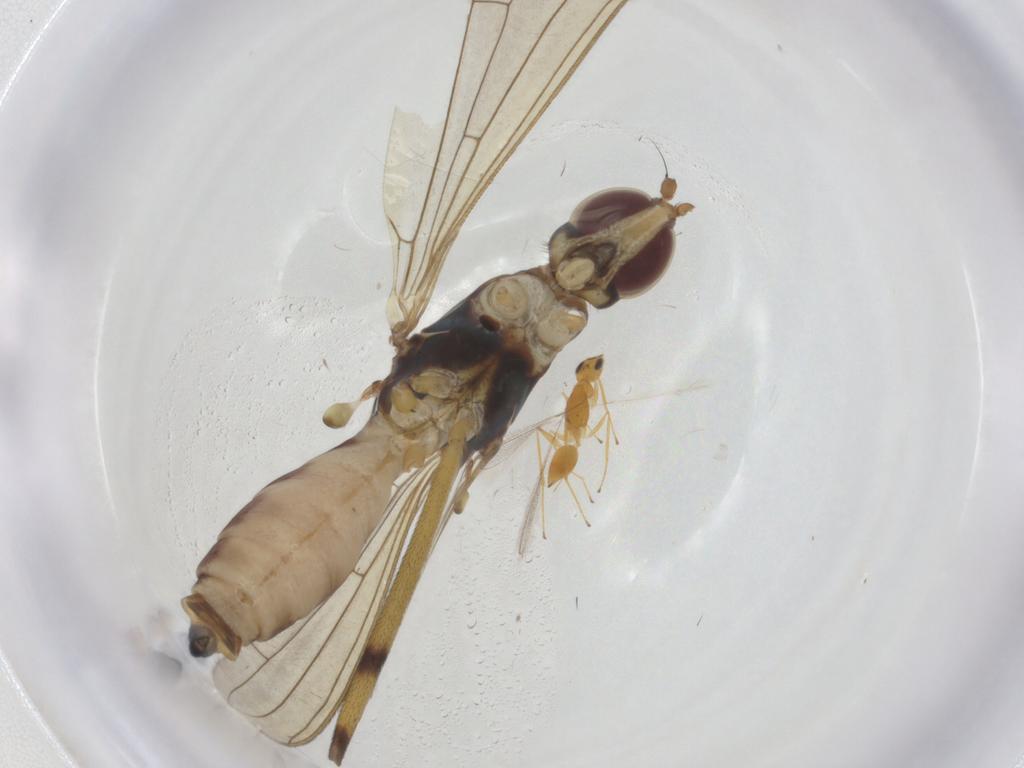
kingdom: Animalia
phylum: Arthropoda
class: Insecta
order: Diptera
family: Micropezidae
